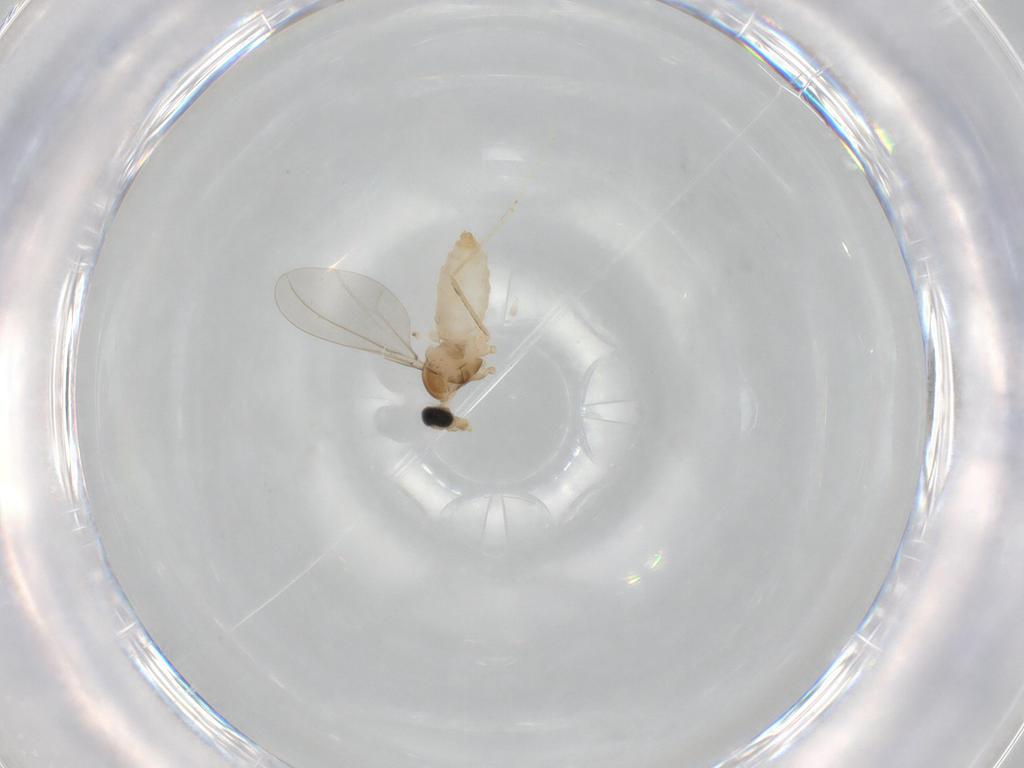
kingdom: Animalia
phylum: Arthropoda
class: Insecta
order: Diptera
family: Cecidomyiidae
